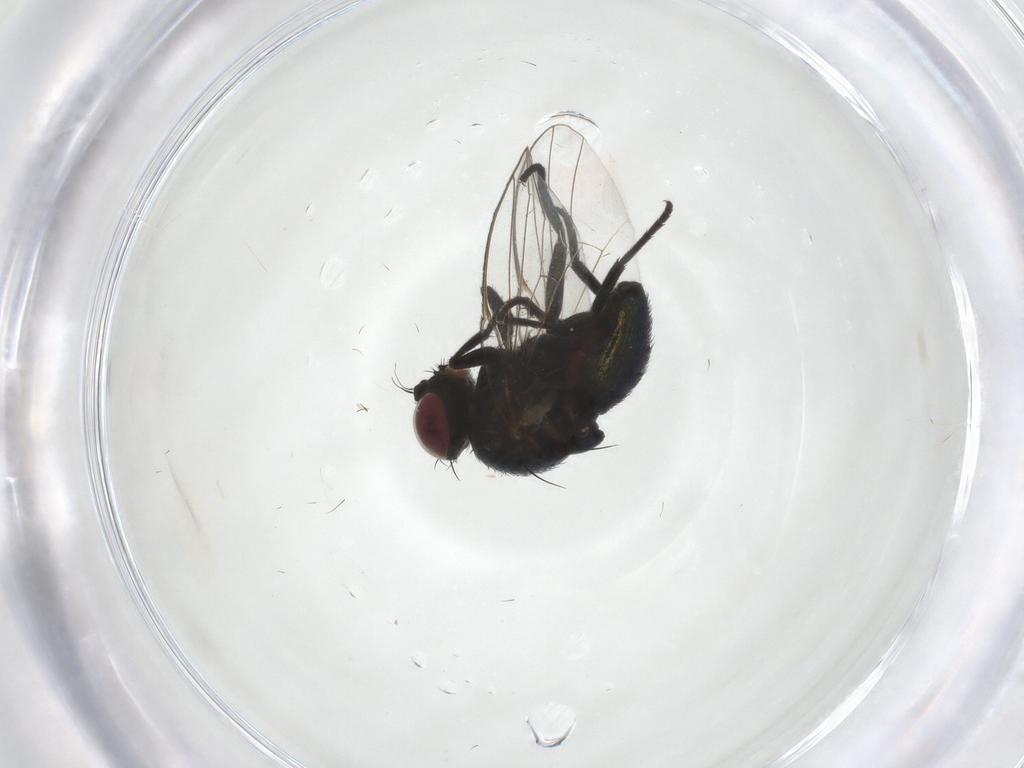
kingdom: Animalia
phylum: Arthropoda
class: Insecta
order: Diptera
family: Agromyzidae
